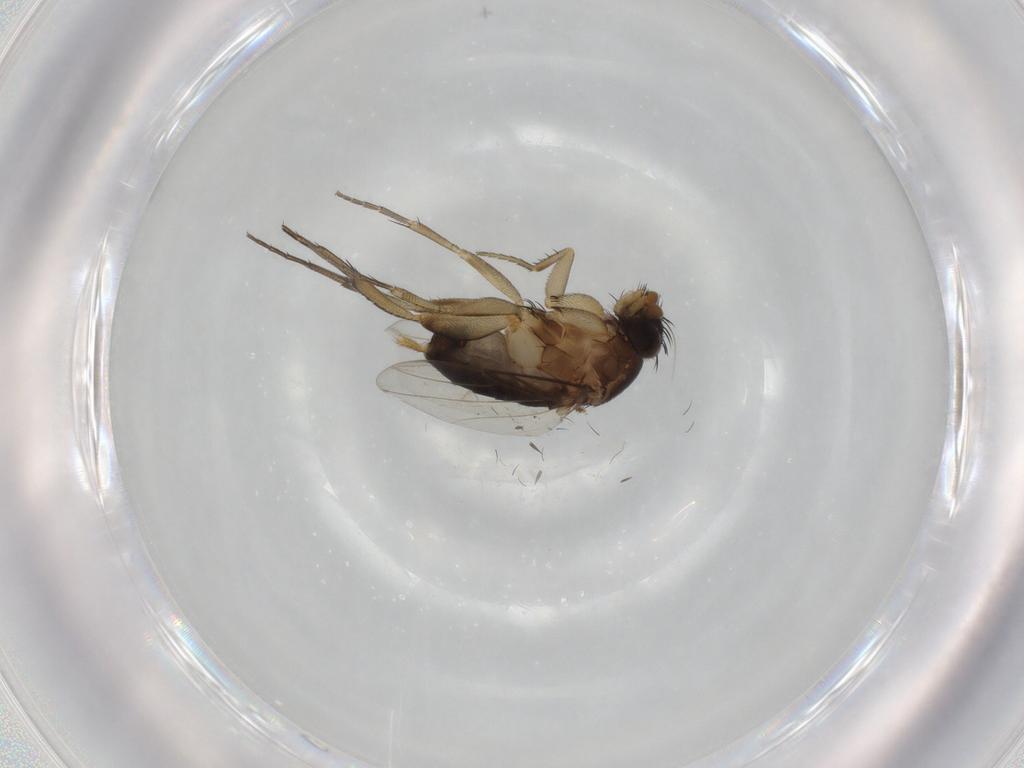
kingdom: Animalia
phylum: Arthropoda
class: Insecta
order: Diptera
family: Phoridae
